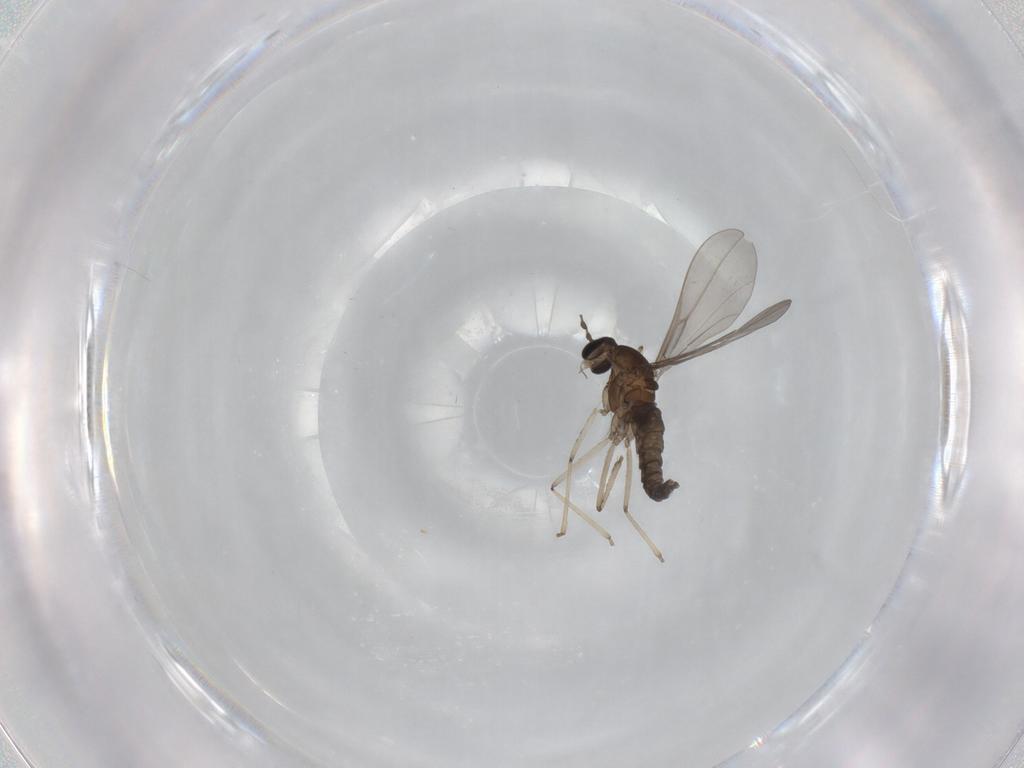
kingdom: Animalia
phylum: Arthropoda
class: Insecta
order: Diptera
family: Cecidomyiidae
